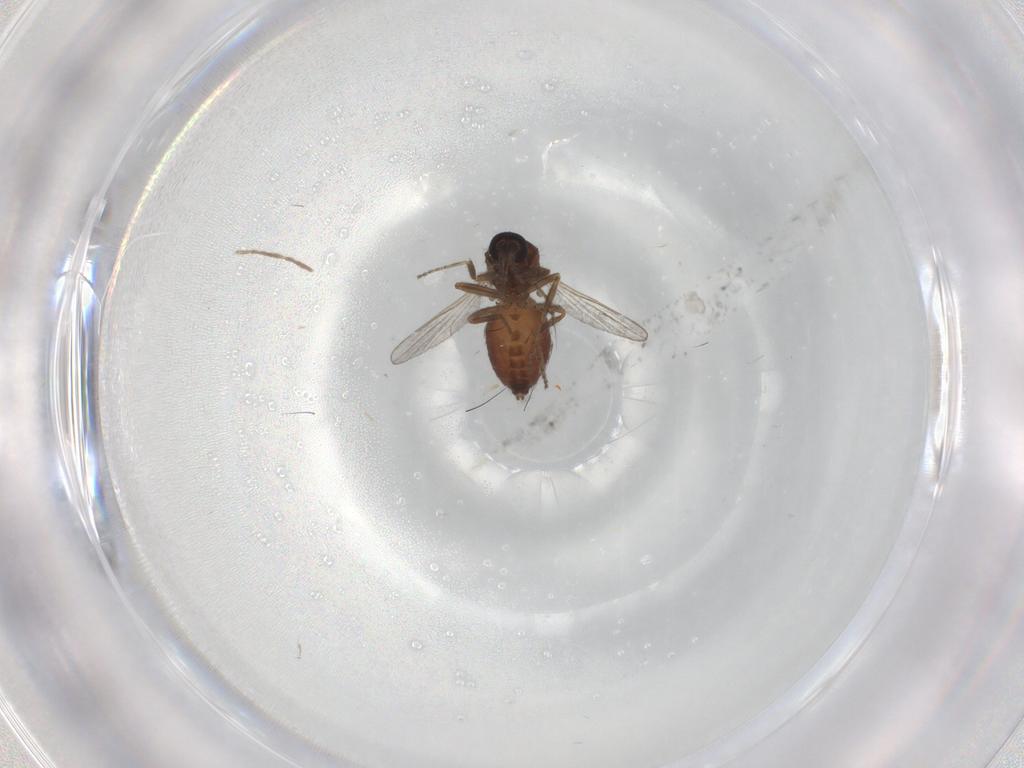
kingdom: Animalia
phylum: Arthropoda
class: Insecta
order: Diptera
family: Ceratopogonidae
